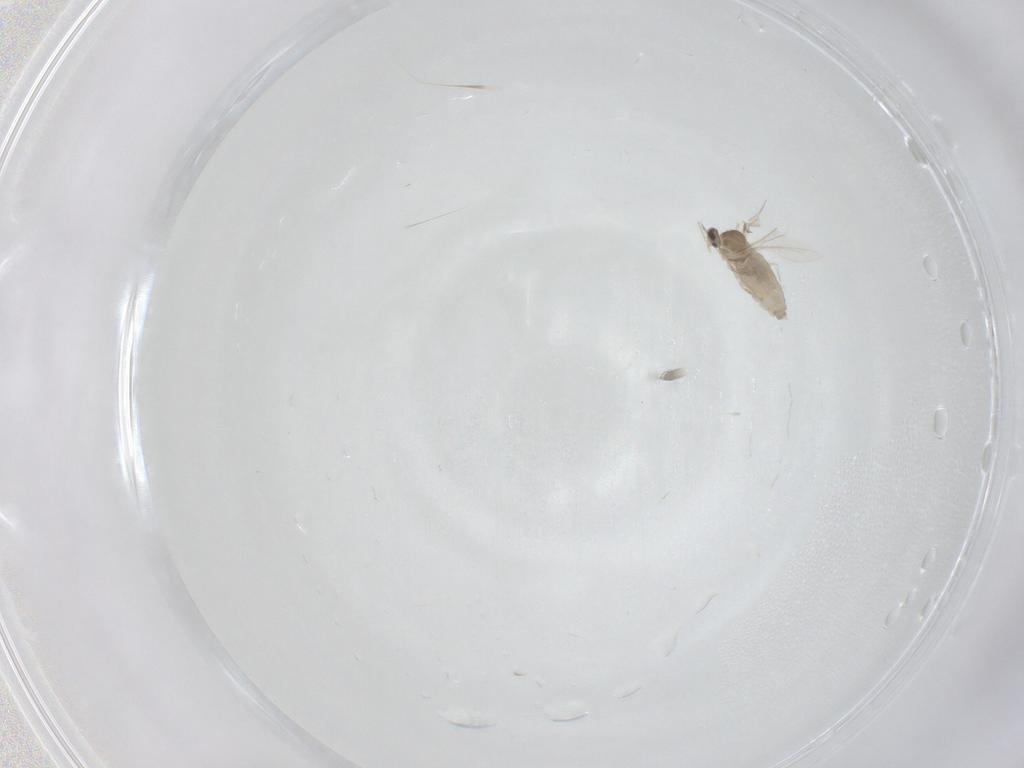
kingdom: Animalia
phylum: Arthropoda
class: Insecta
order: Diptera
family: Cecidomyiidae
